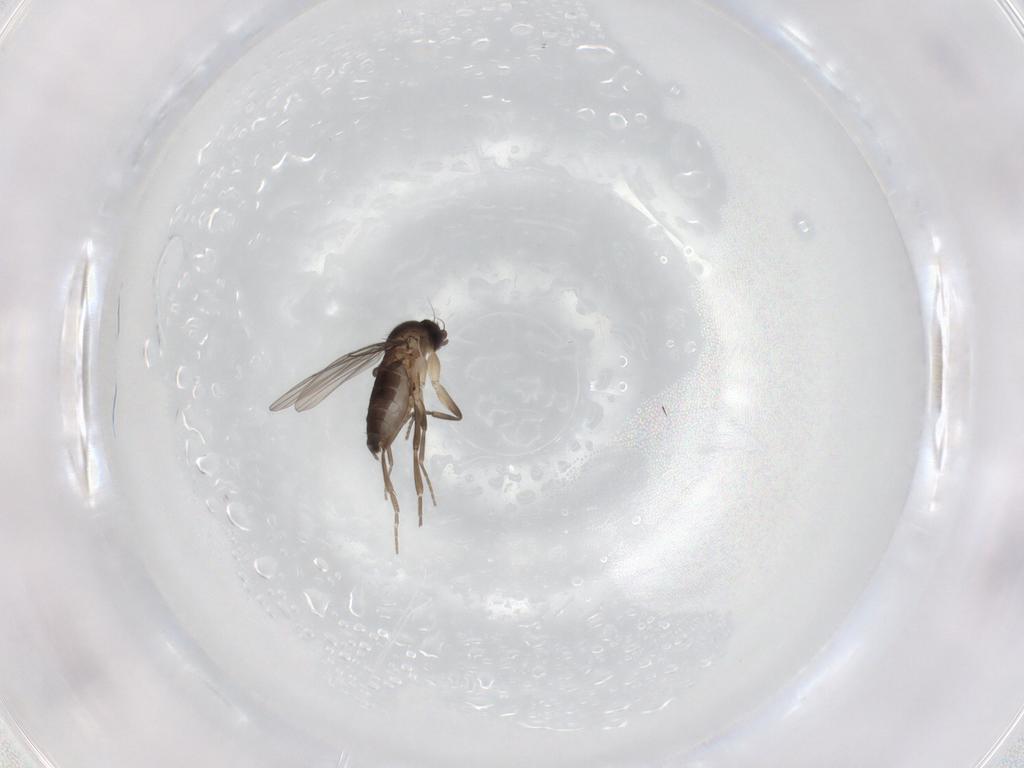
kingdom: Animalia
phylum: Arthropoda
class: Insecta
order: Diptera
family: Phoridae
